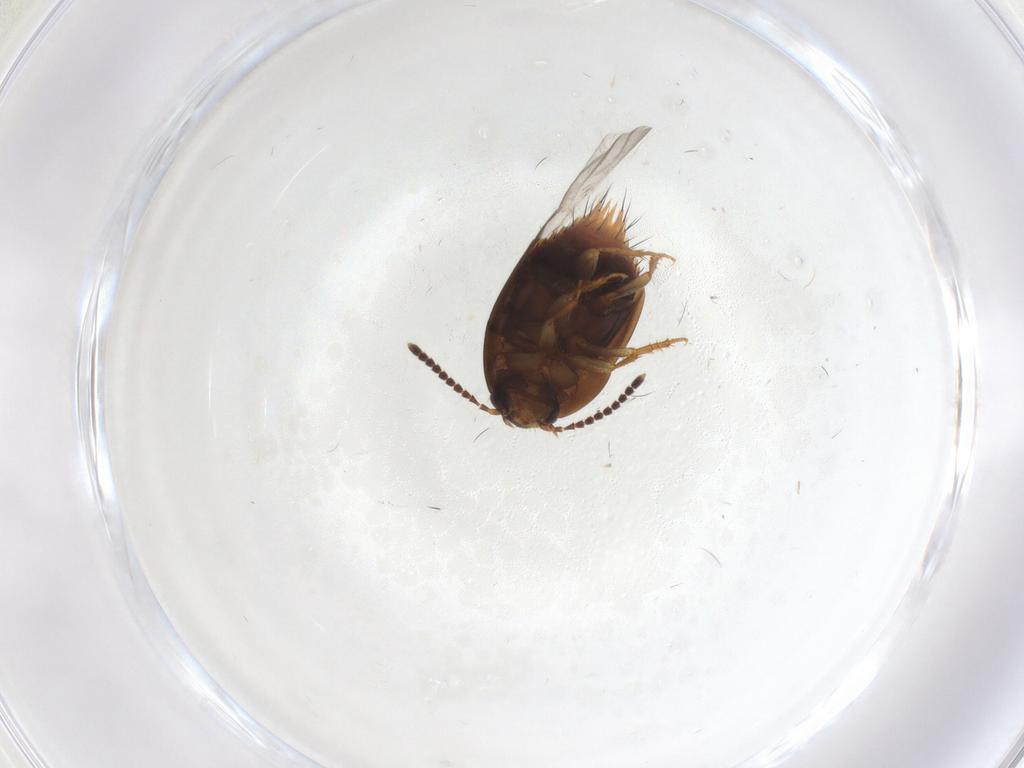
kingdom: Animalia
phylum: Arthropoda
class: Insecta
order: Coleoptera
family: Staphylinidae
